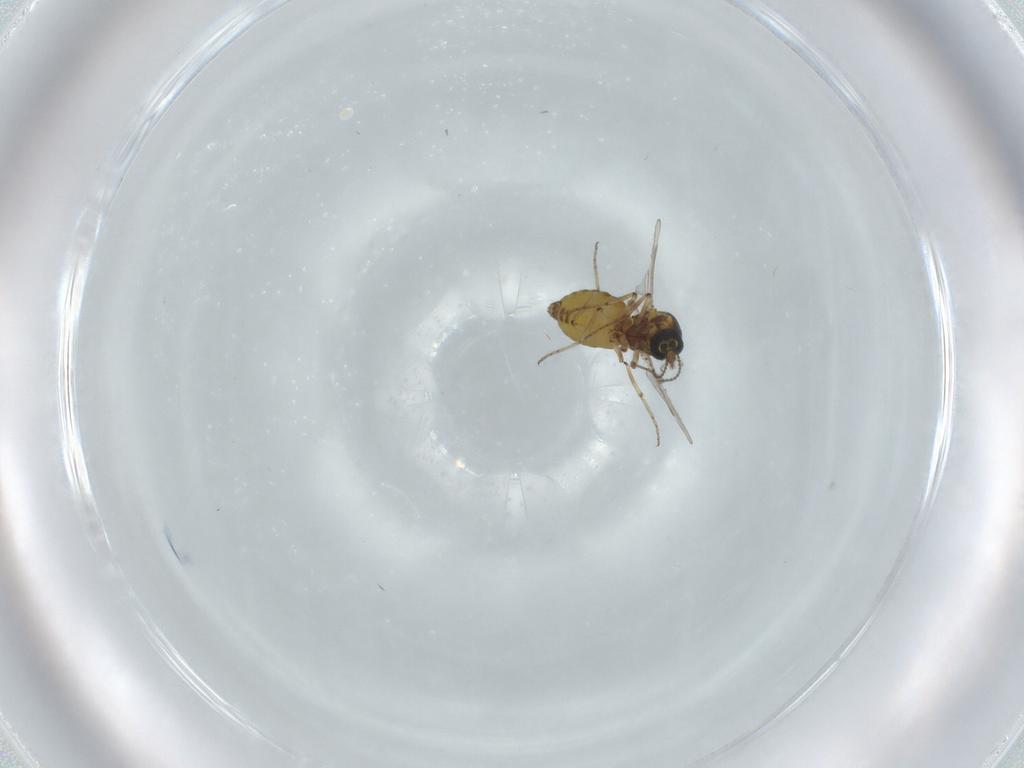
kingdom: Animalia
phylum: Arthropoda
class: Insecta
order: Diptera
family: Ceratopogonidae
